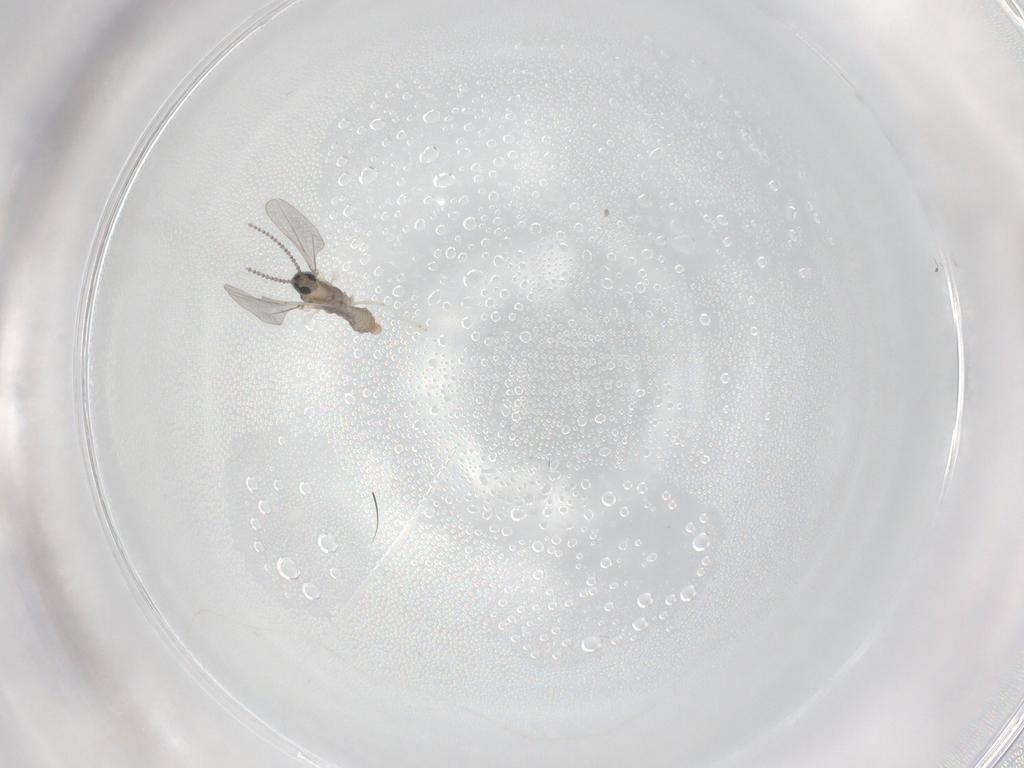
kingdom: Animalia
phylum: Arthropoda
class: Insecta
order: Diptera
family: Cecidomyiidae
